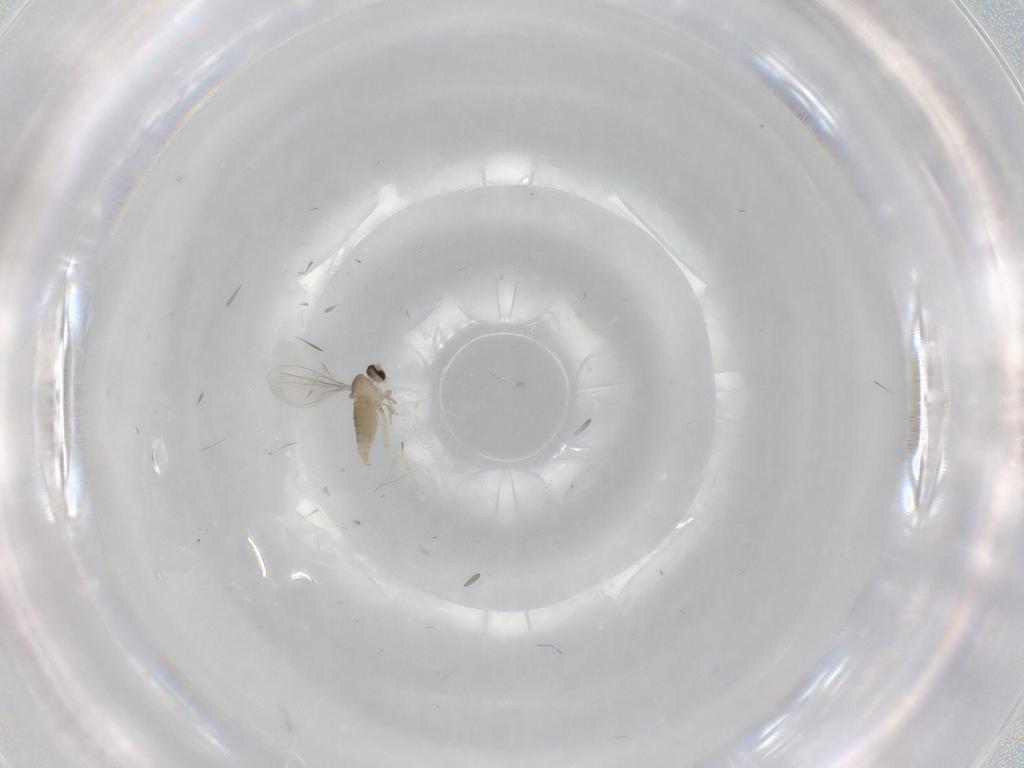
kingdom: Animalia
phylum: Arthropoda
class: Insecta
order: Diptera
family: Cecidomyiidae
